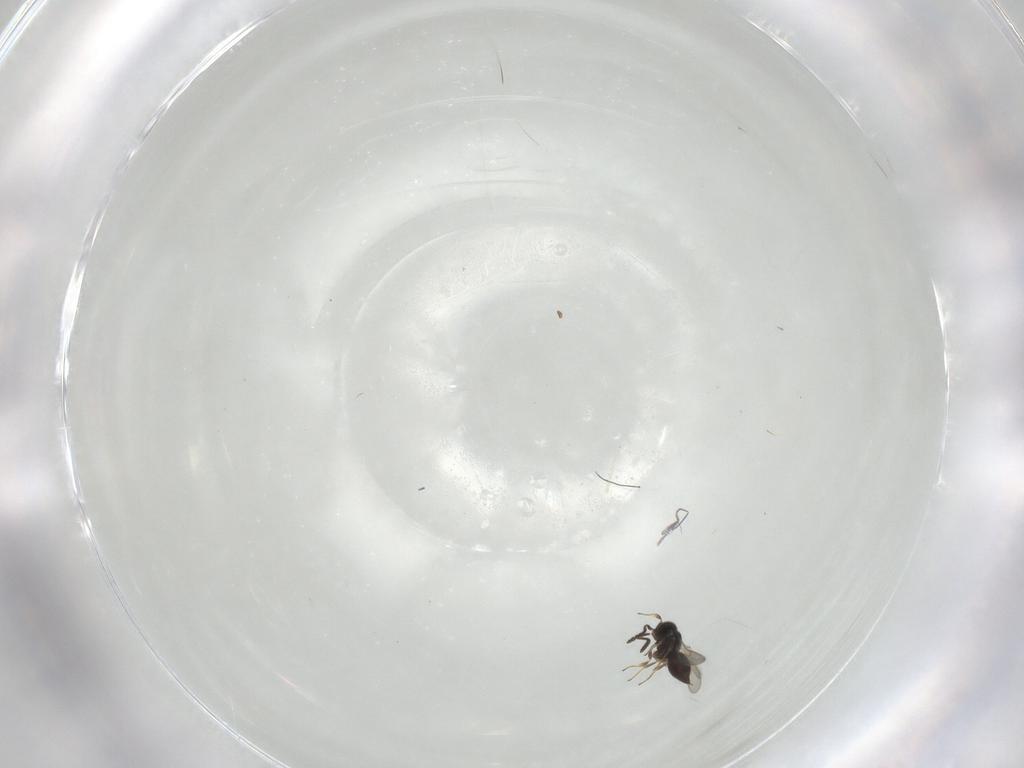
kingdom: Animalia
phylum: Arthropoda
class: Insecta
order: Hymenoptera
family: Scelionidae
